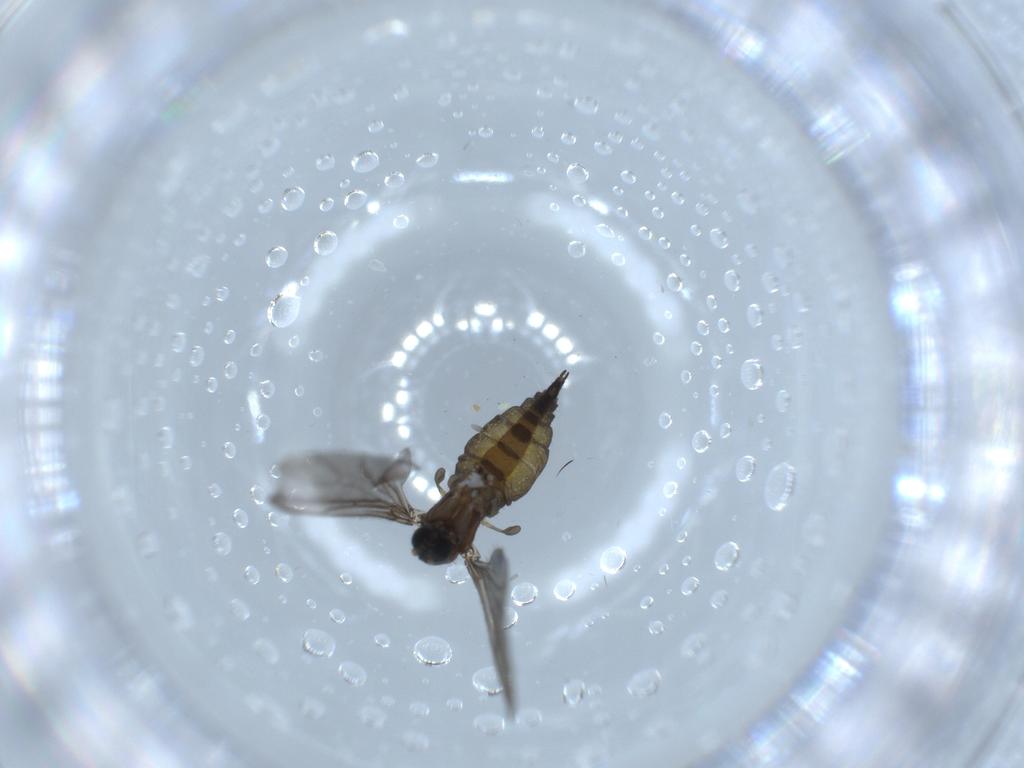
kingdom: Animalia
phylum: Arthropoda
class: Insecta
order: Diptera
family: Sciaridae
